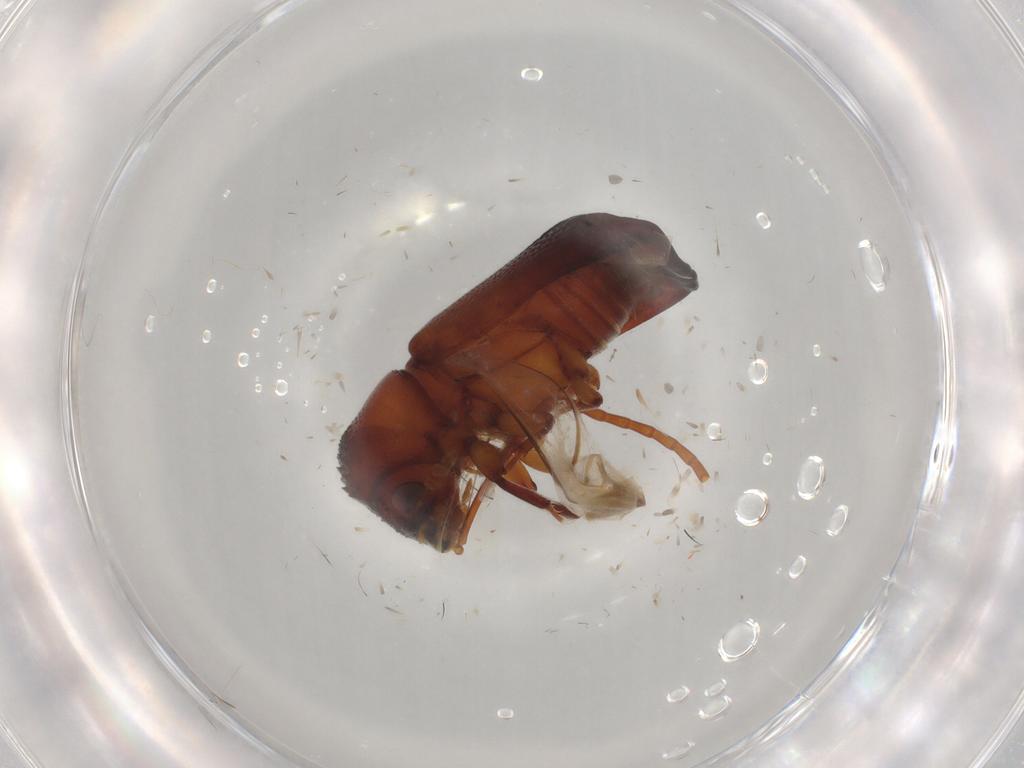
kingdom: Animalia
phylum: Arthropoda
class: Insecta
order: Coleoptera
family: Bostrichidae
